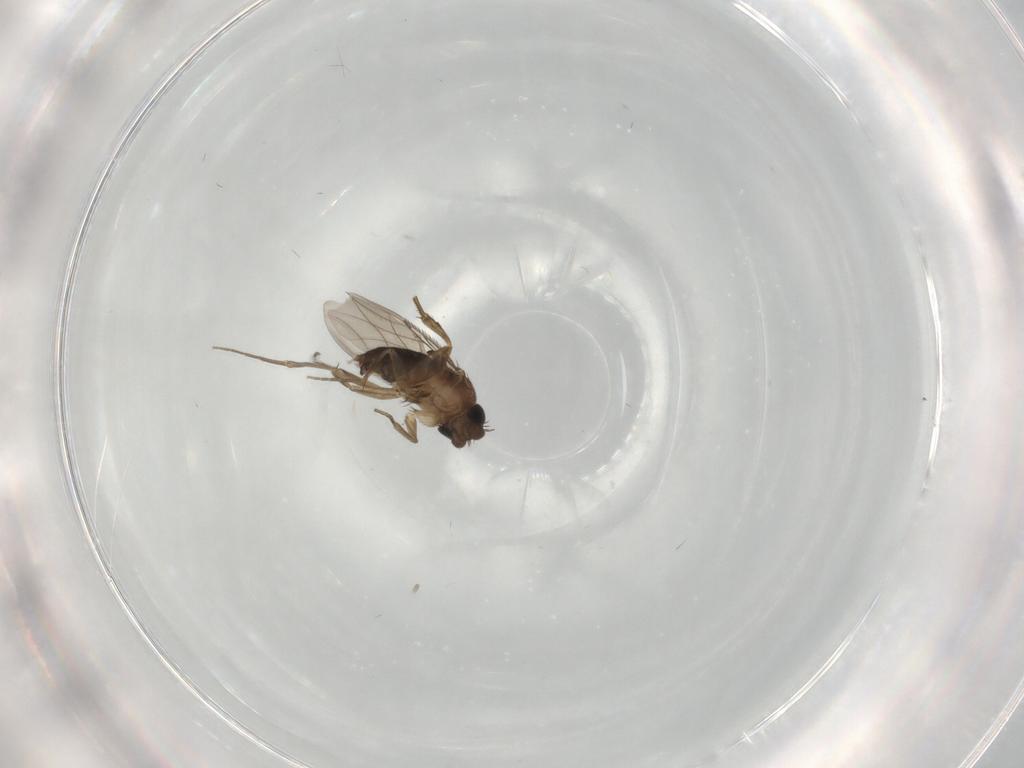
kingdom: Animalia
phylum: Arthropoda
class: Insecta
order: Diptera
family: Phoridae
